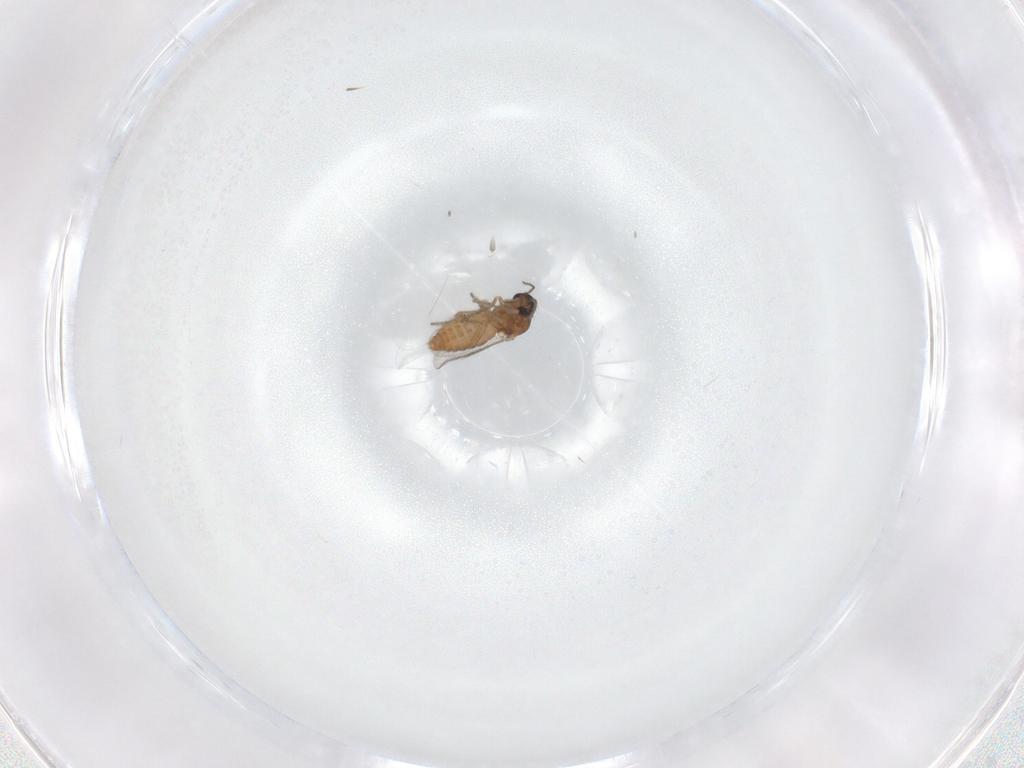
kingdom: Animalia
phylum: Arthropoda
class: Insecta
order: Diptera
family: Ceratopogonidae
